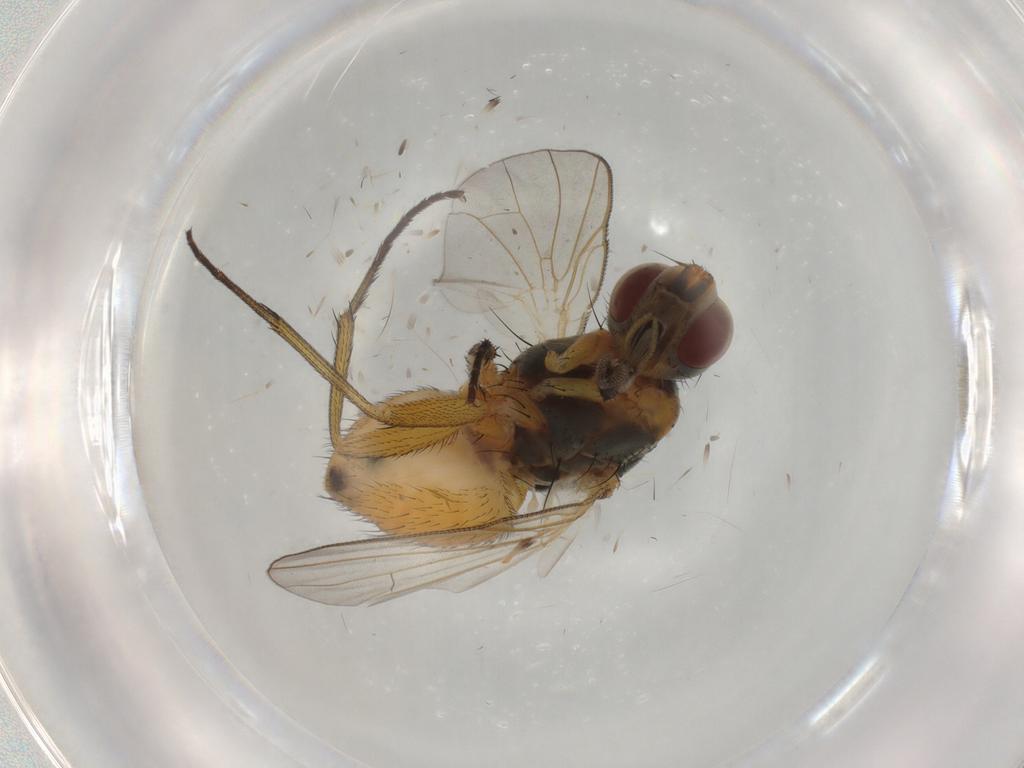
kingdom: Animalia
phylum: Arthropoda
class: Insecta
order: Diptera
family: Muscidae
